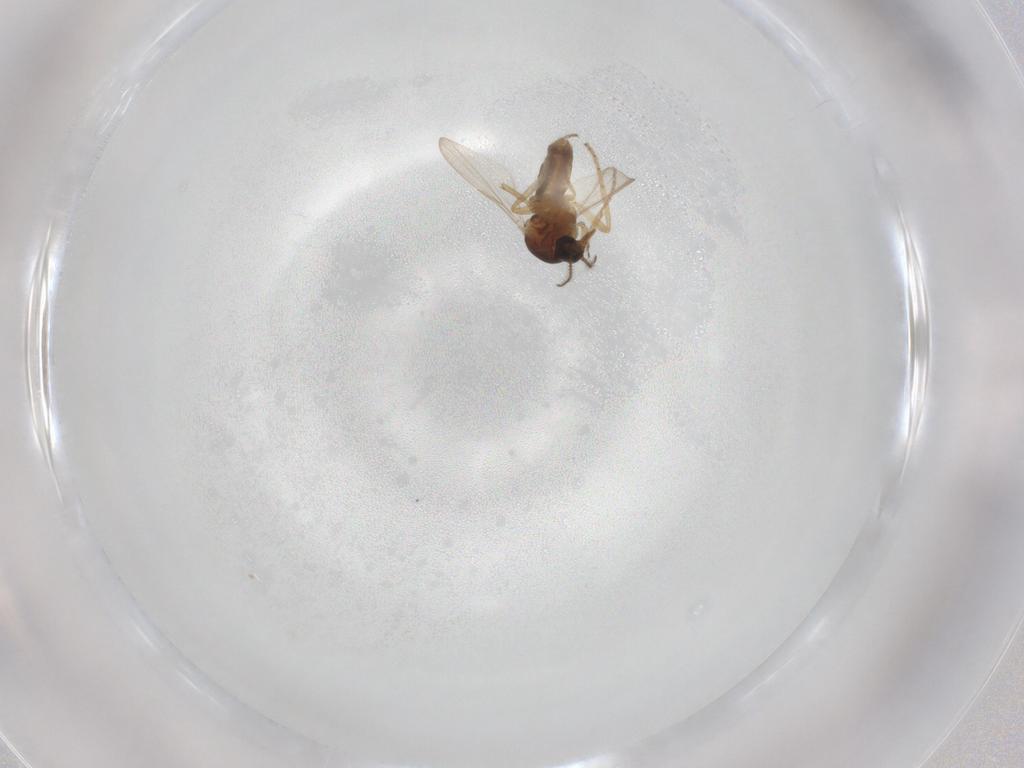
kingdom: Animalia
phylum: Arthropoda
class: Insecta
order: Diptera
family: Ceratopogonidae
